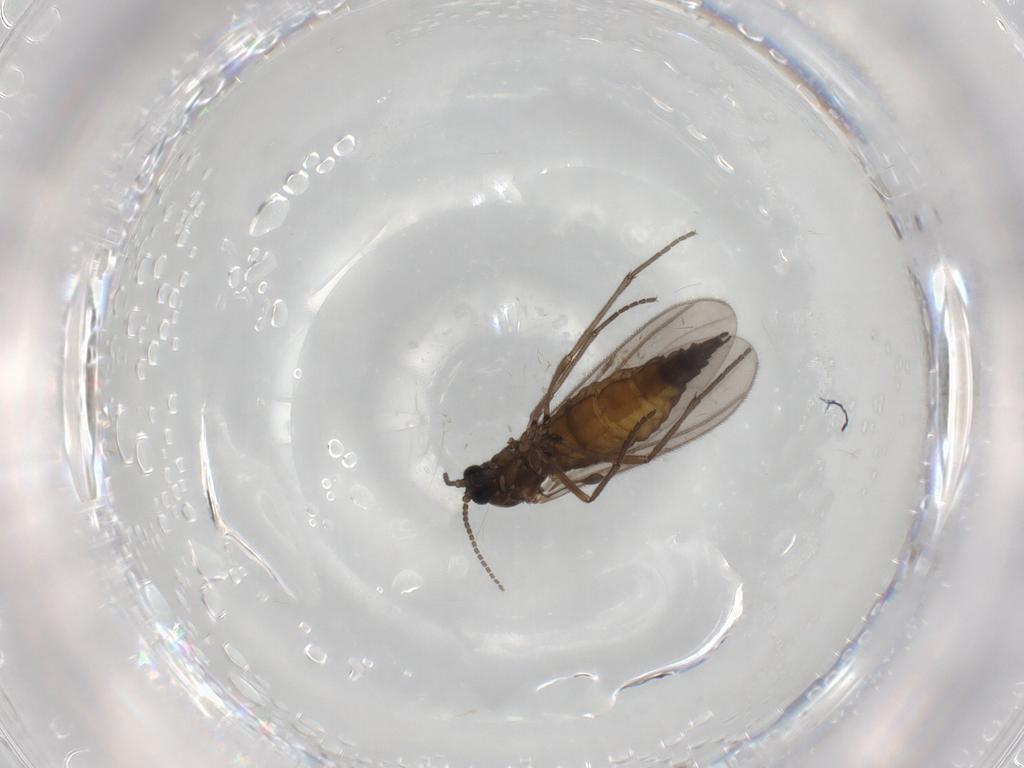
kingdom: Animalia
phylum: Arthropoda
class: Insecta
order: Diptera
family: Sciaridae
